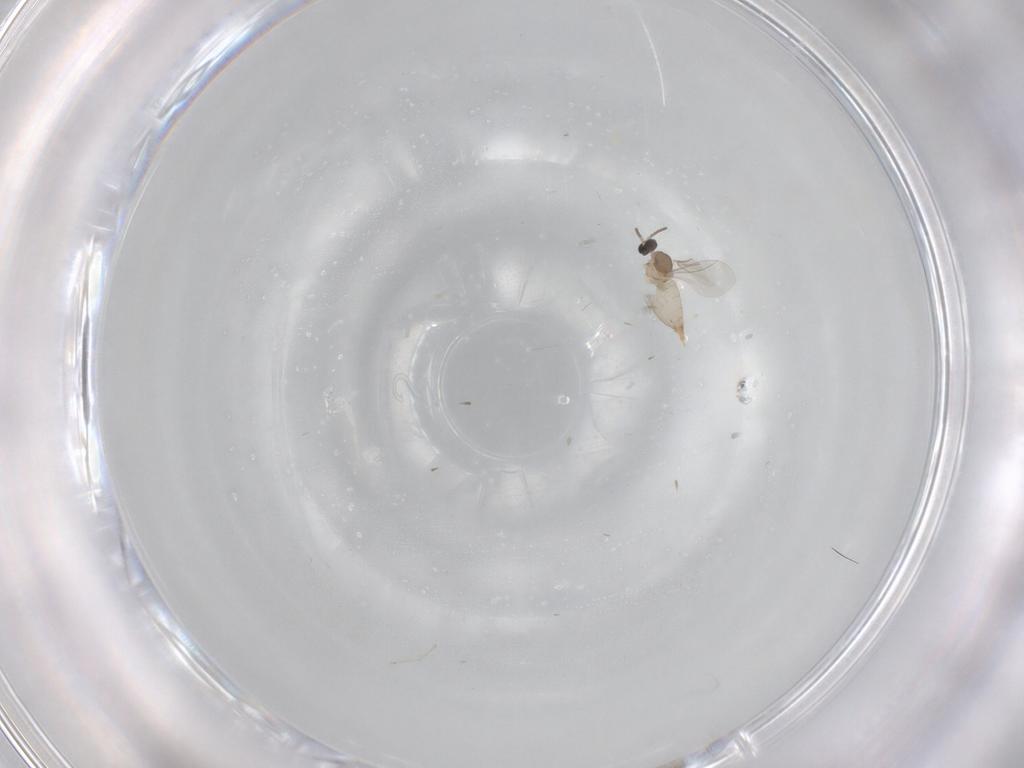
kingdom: Animalia
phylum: Arthropoda
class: Insecta
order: Diptera
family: Cecidomyiidae
